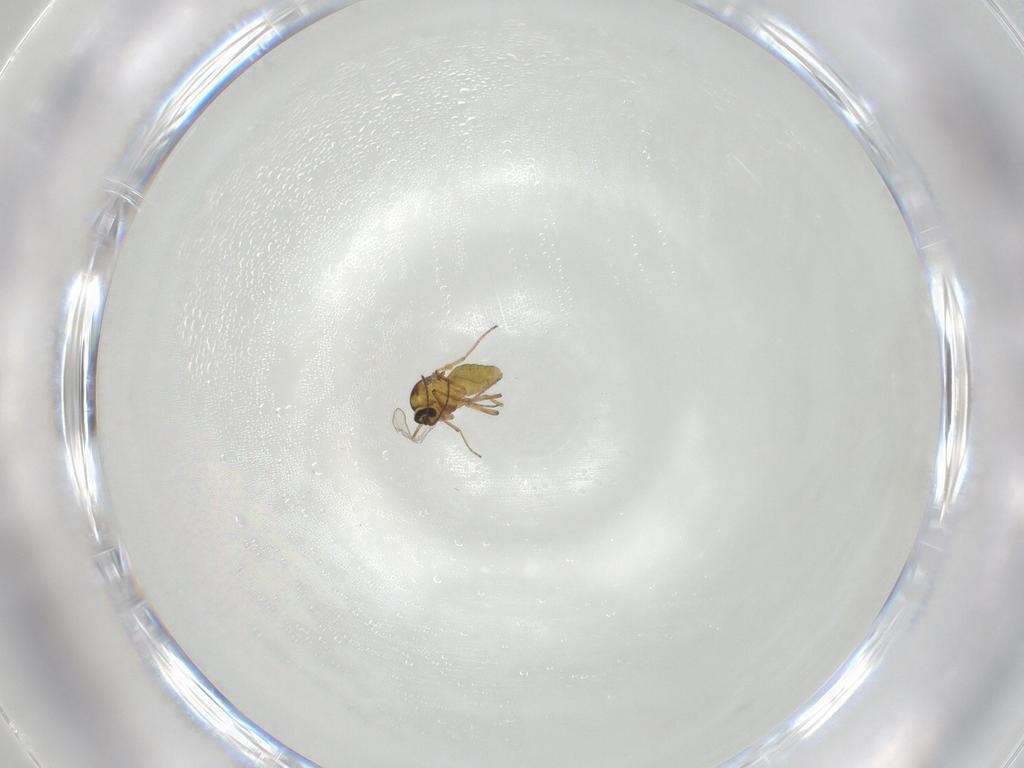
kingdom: Animalia
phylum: Arthropoda
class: Insecta
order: Diptera
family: Ceratopogonidae
